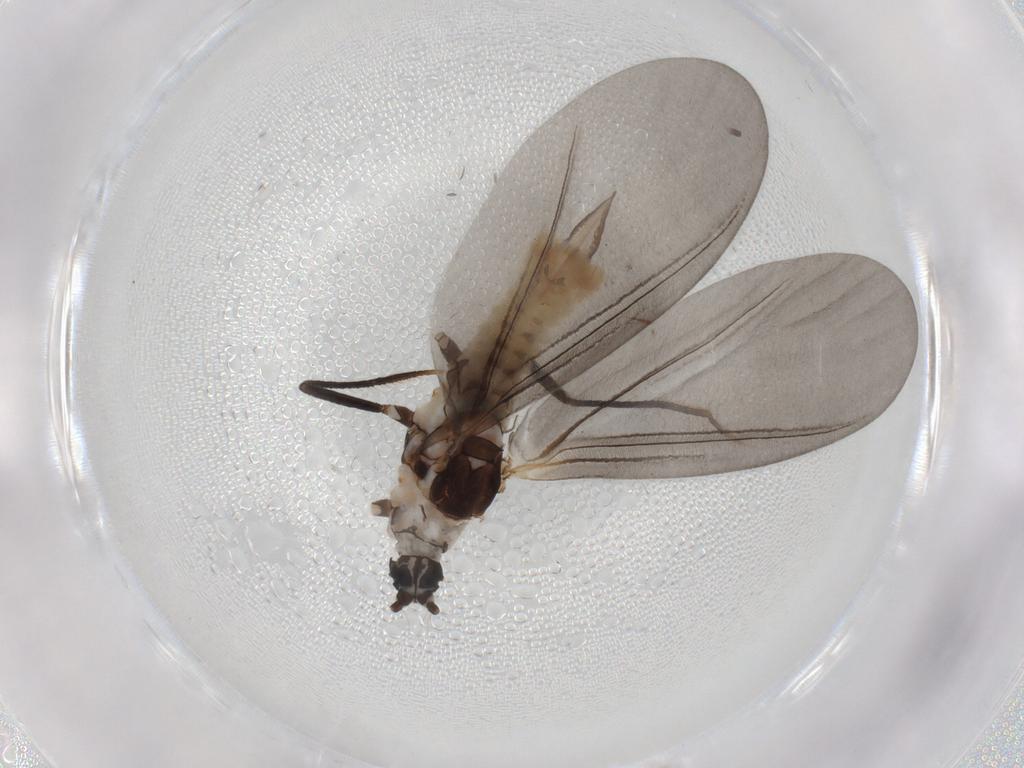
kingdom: Animalia
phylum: Arthropoda
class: Insecta
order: Hemiptera
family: Putoidae
